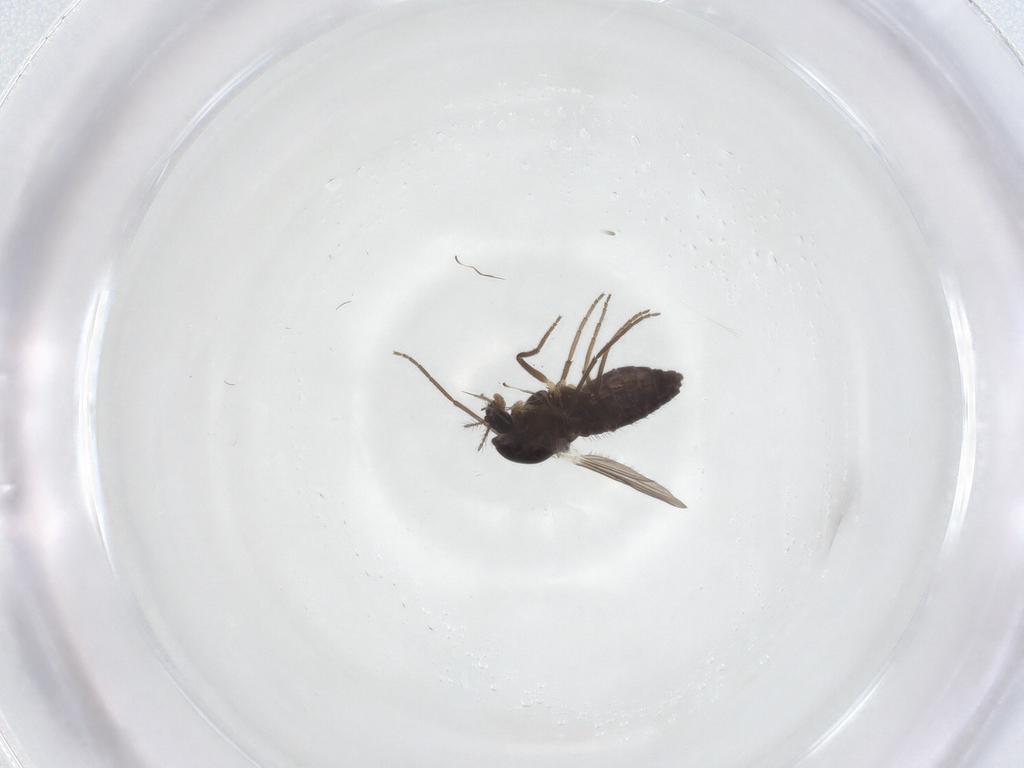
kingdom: Animalia
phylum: Arthropoda
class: Insecta
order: Diptera
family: Chironomidae
